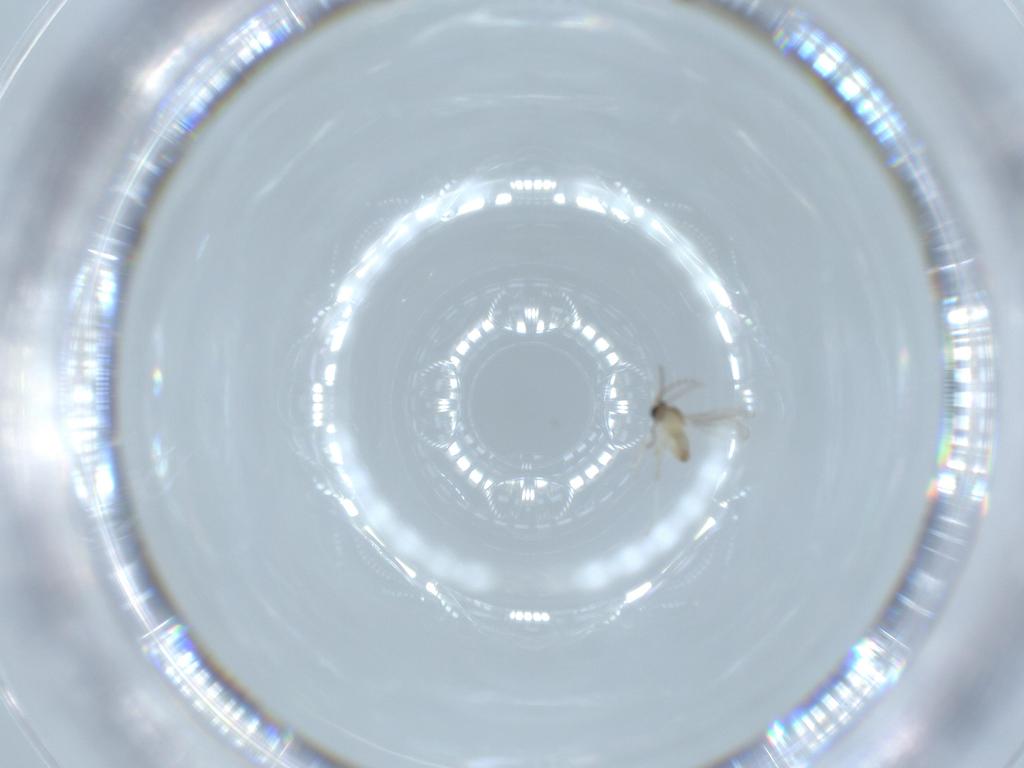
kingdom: Animalia
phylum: Arthropoda
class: Insecta
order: Diptera
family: Cecidomyiidae
